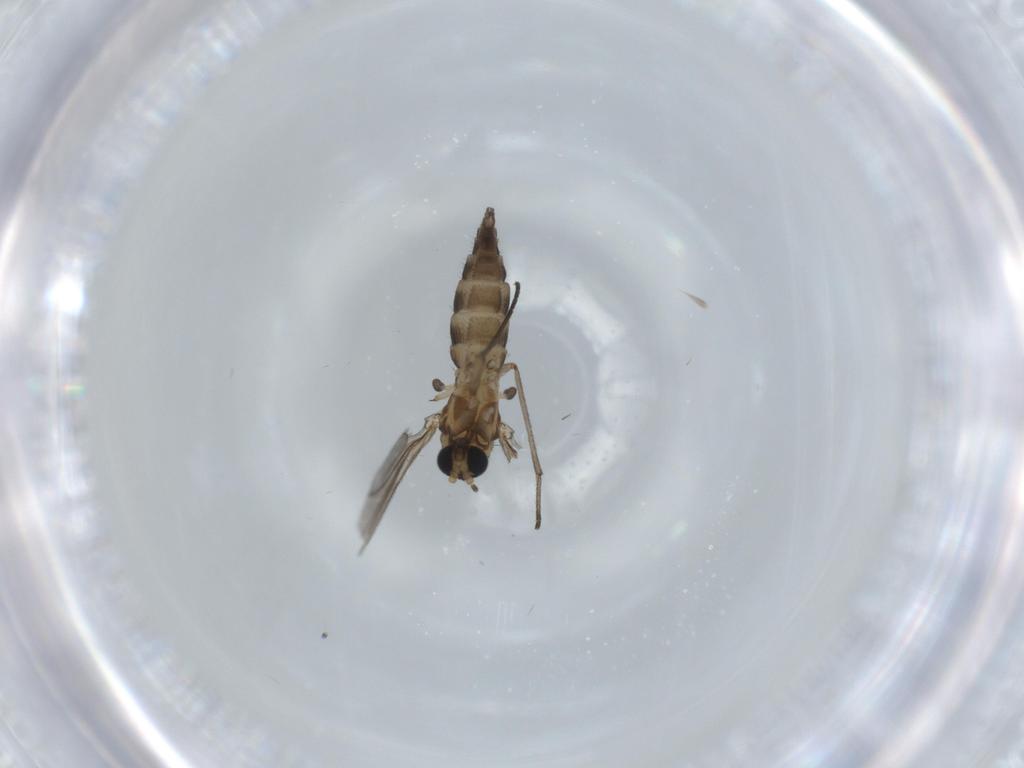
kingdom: Animalia
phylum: Arthropoda
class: Insecta
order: Diptera
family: Sciaridae
